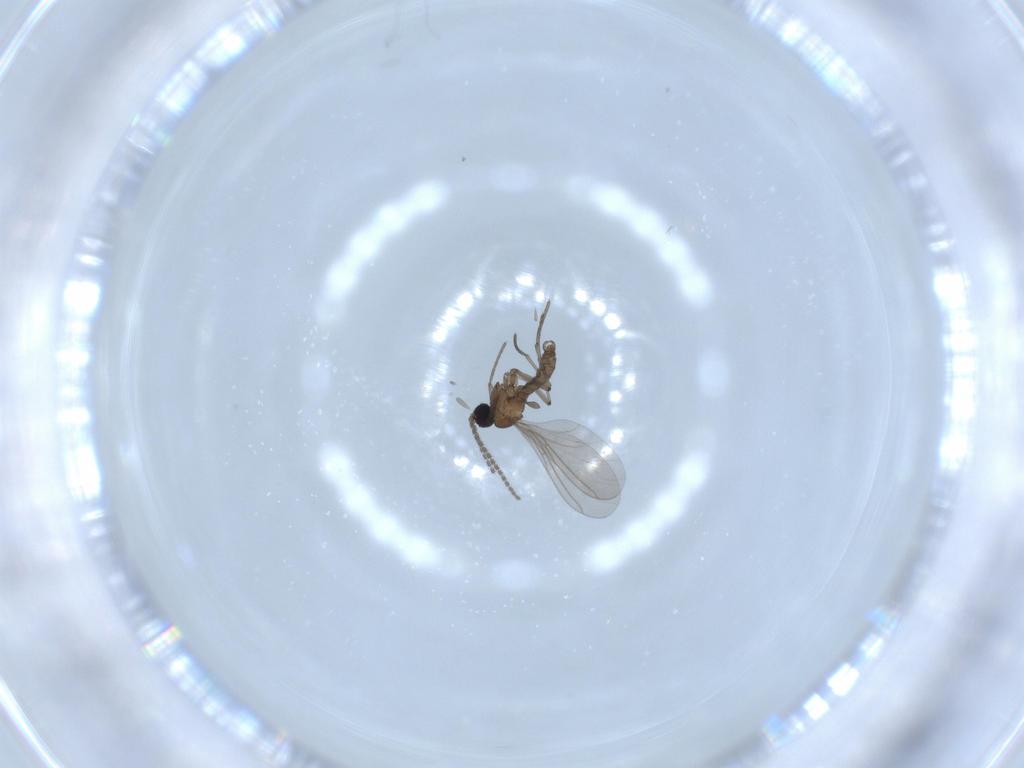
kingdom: Animalia
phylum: Arthropoda
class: Insecta
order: Diptera
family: Sciaridae
